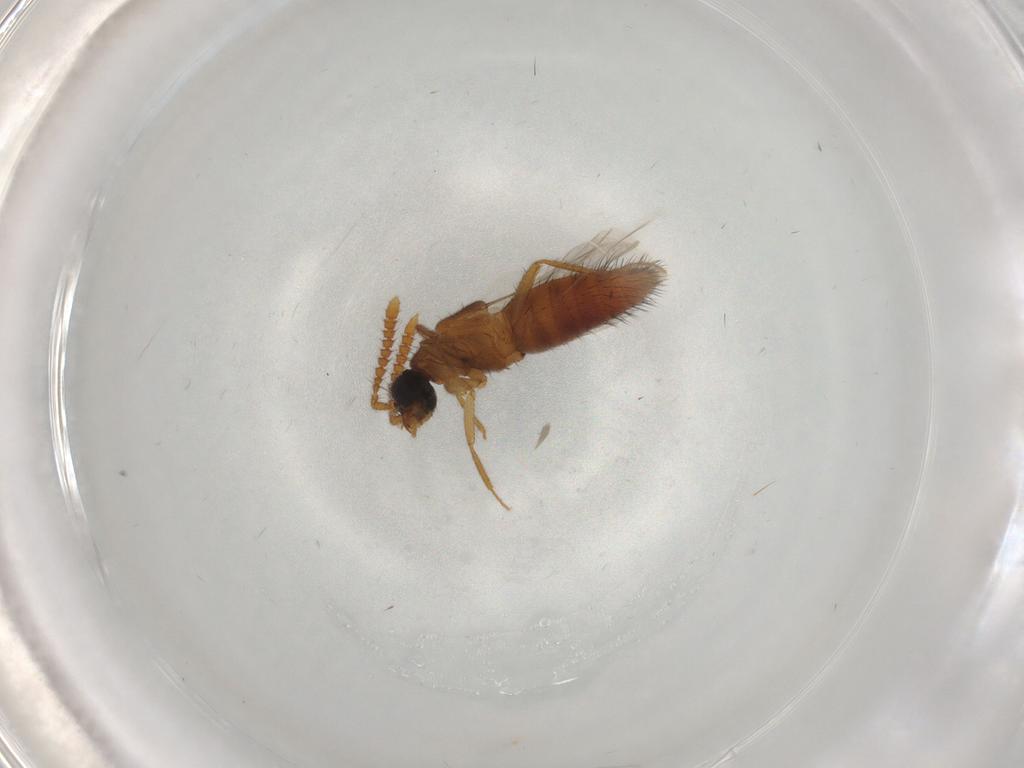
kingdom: Animalia
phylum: Arthropoda
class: Insecta
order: Coleoptera
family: Staphylinidae
